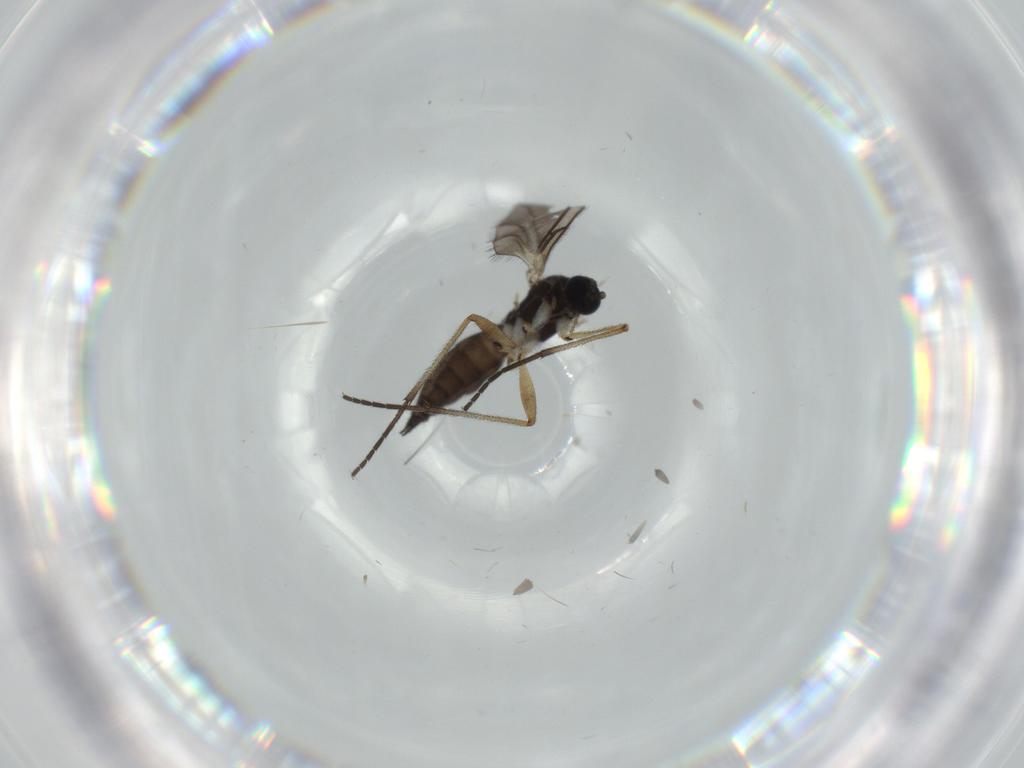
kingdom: Animalia
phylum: Arthropoda
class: Insecta
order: Diptera
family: Sciaridae
